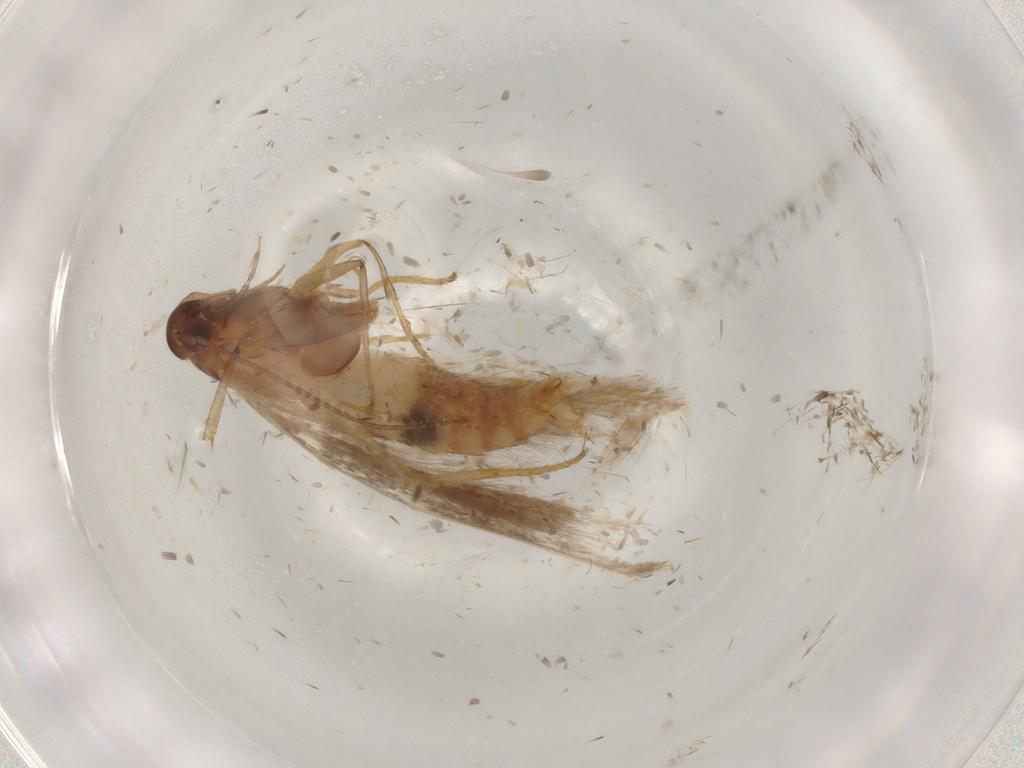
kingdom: Animalia
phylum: Arthropoda
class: Insecta
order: Lepidoptera
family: Gelechiidae
